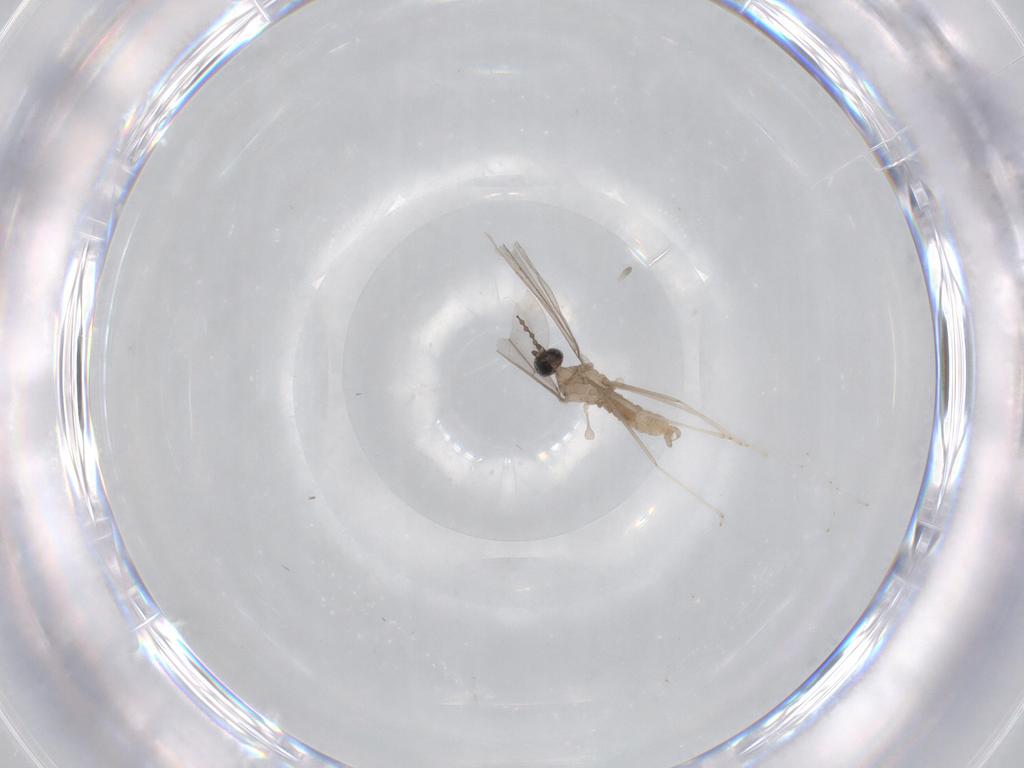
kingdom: Animalia
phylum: Arthropoda
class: Insecta
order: Diptera
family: Cecidomyiidae
